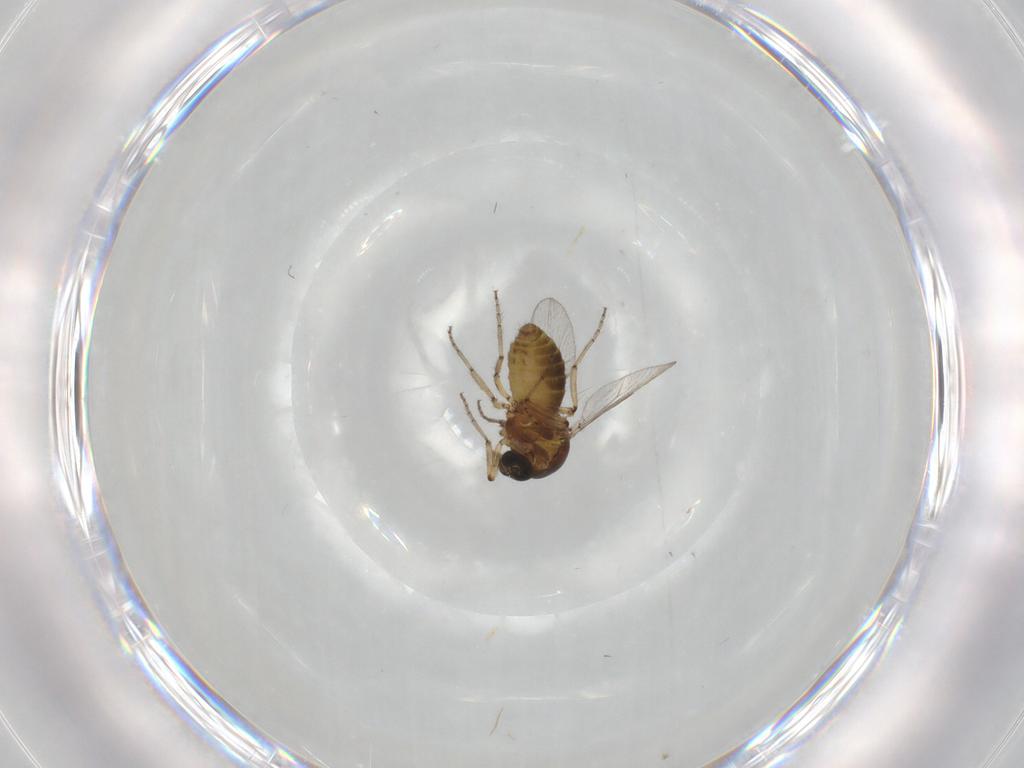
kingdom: Animalia
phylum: Arthropoda
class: Insecta
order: Diptera
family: Ceratopogonidae
